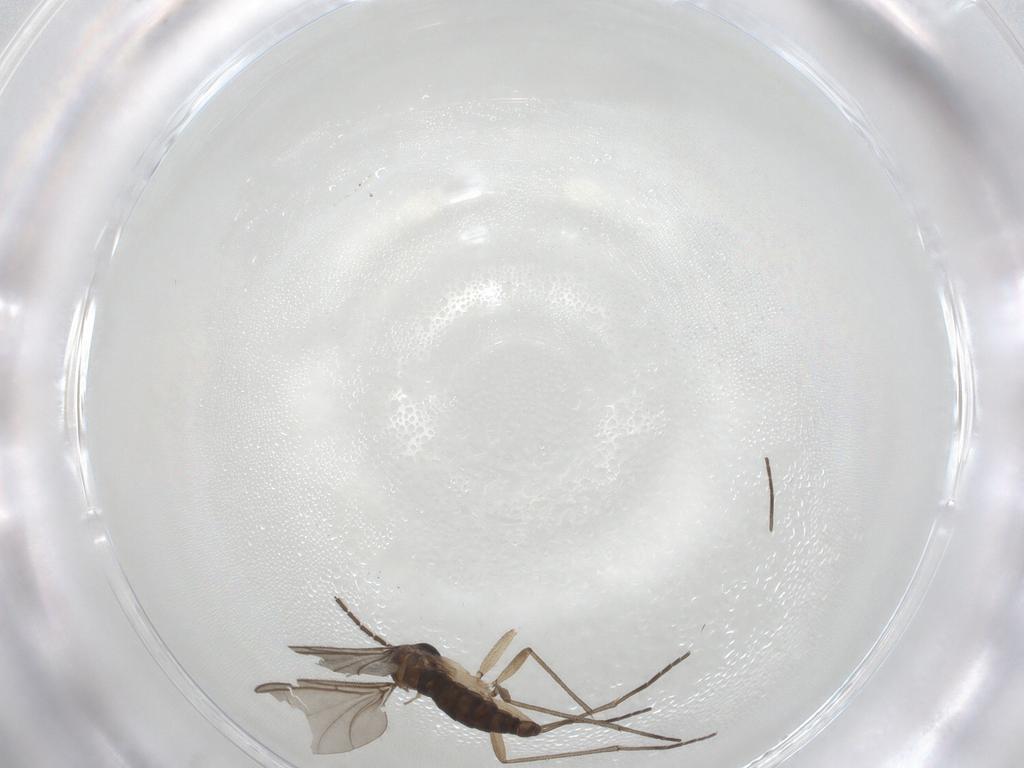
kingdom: Animalia
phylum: Arthropoda
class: Insecta
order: Diptera
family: Sciaridae
